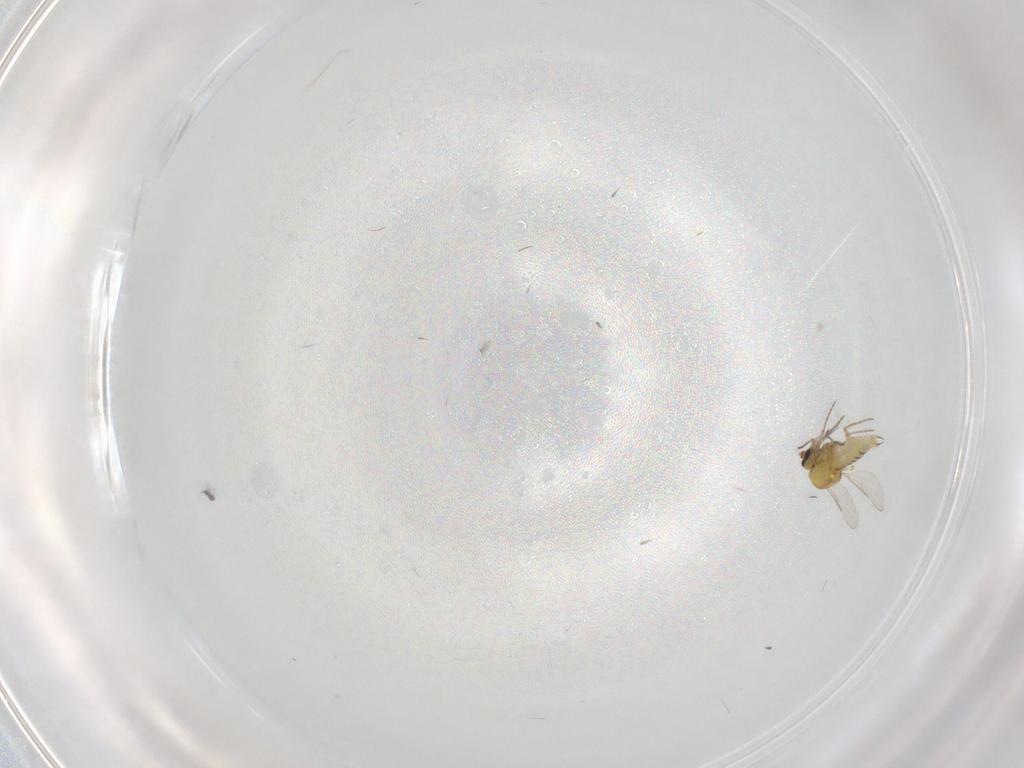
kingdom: Animalia
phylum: Arthropoda
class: Insecta
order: Diptera
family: Ceratopogonidae
